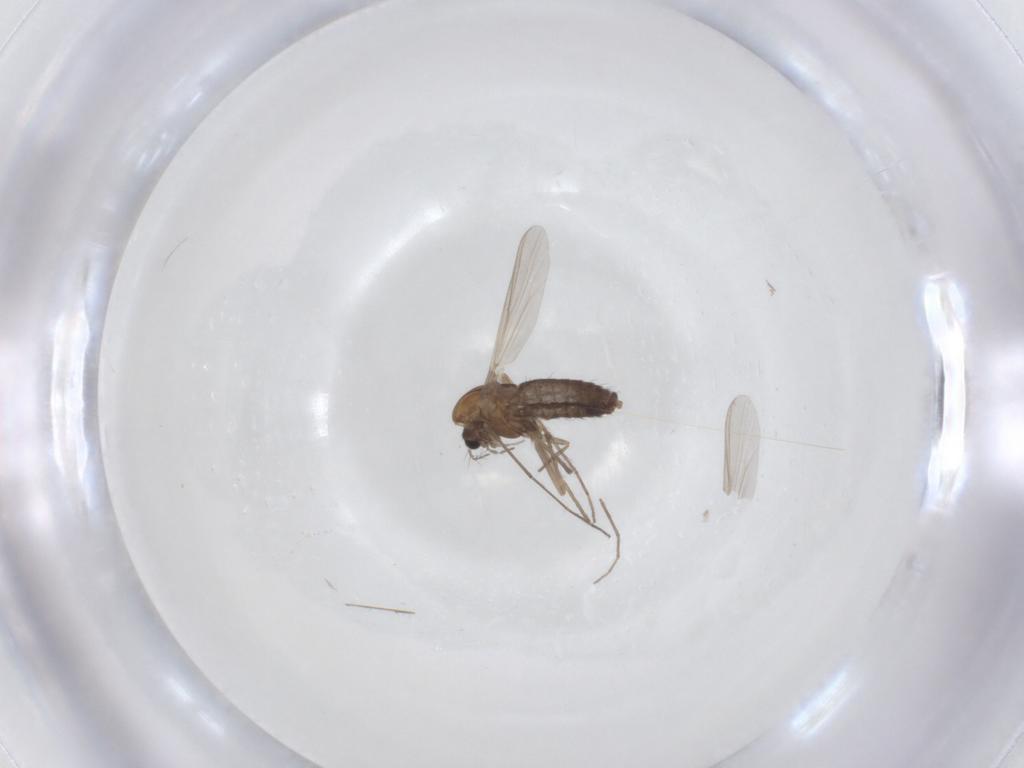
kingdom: Animalia
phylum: Arthropoda
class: Insecta
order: Diptera
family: Chironomidae
